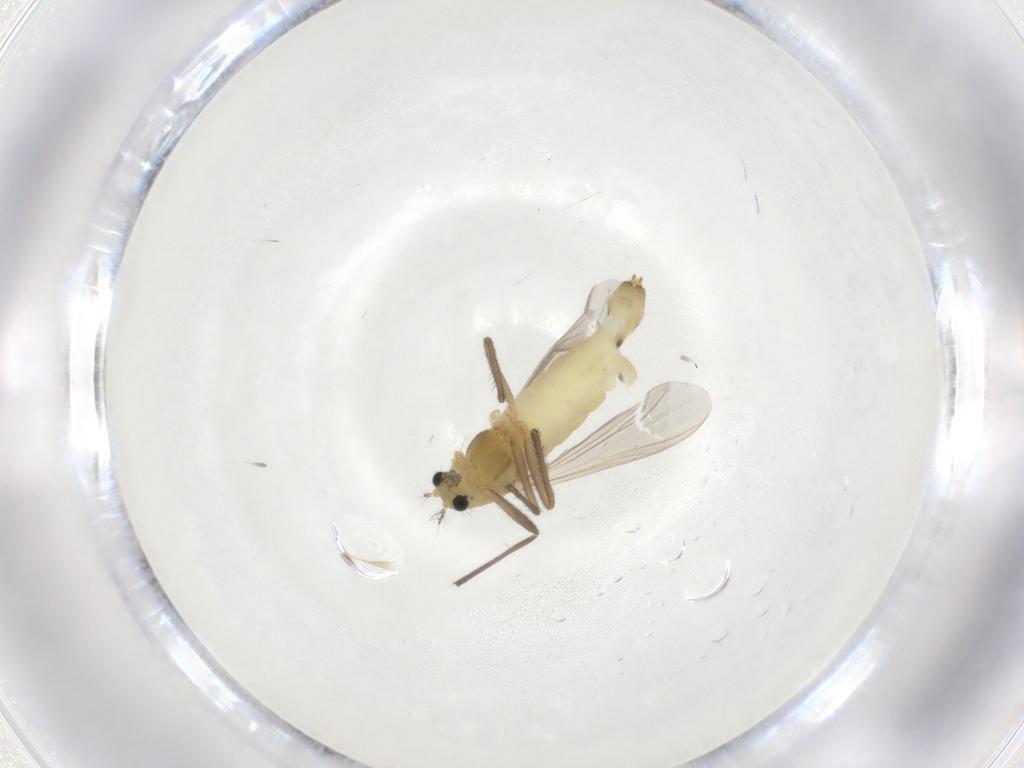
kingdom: Animalia
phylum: Arthropoda
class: Insecta
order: Diptera
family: Chironomidae
